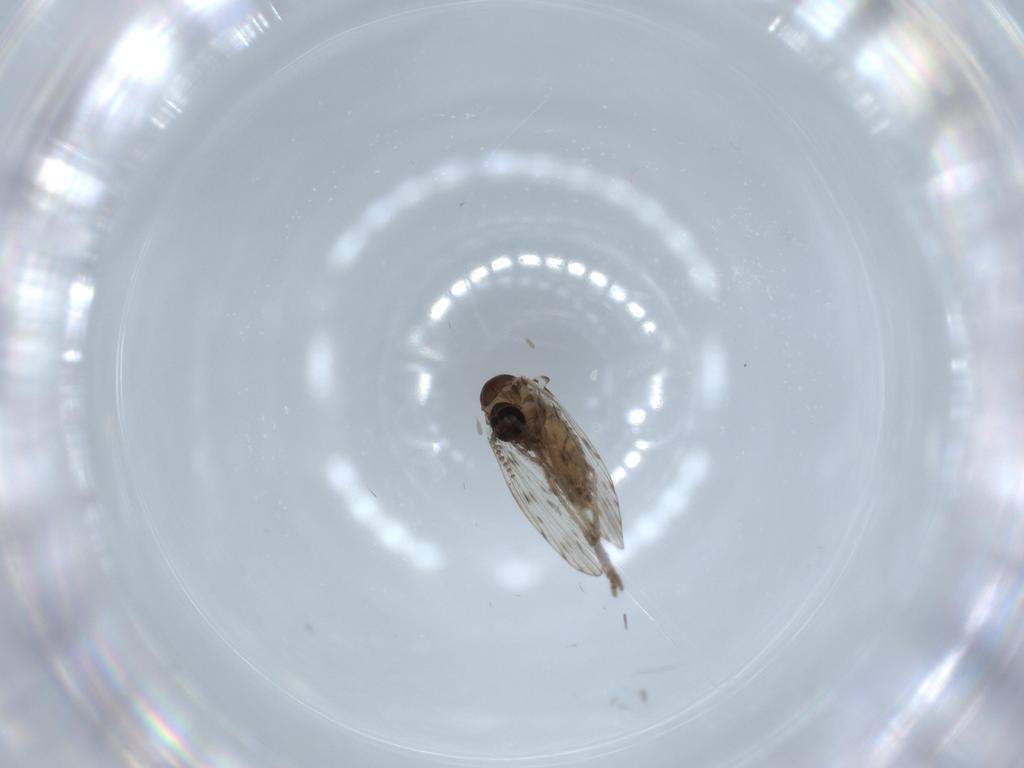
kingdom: Animalia
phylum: Arthropoda
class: Insecta
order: Diptera
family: Psychodidae
